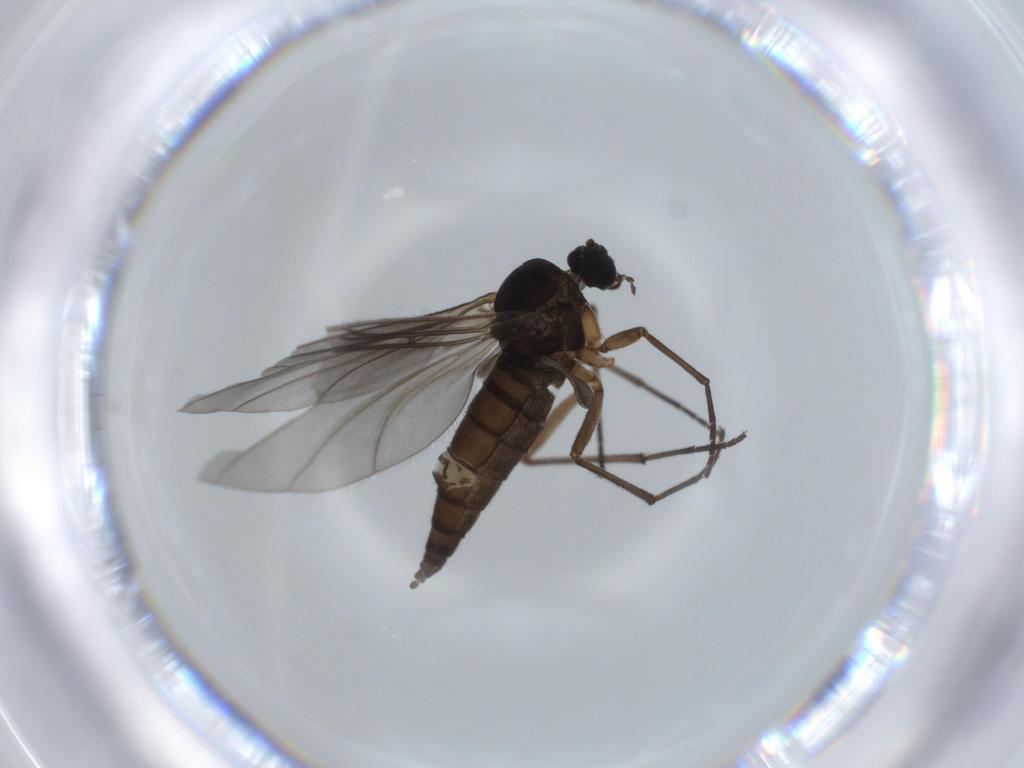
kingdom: Animalia
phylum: Arthropoda
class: Insecta
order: Diptera
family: Sciaridae
